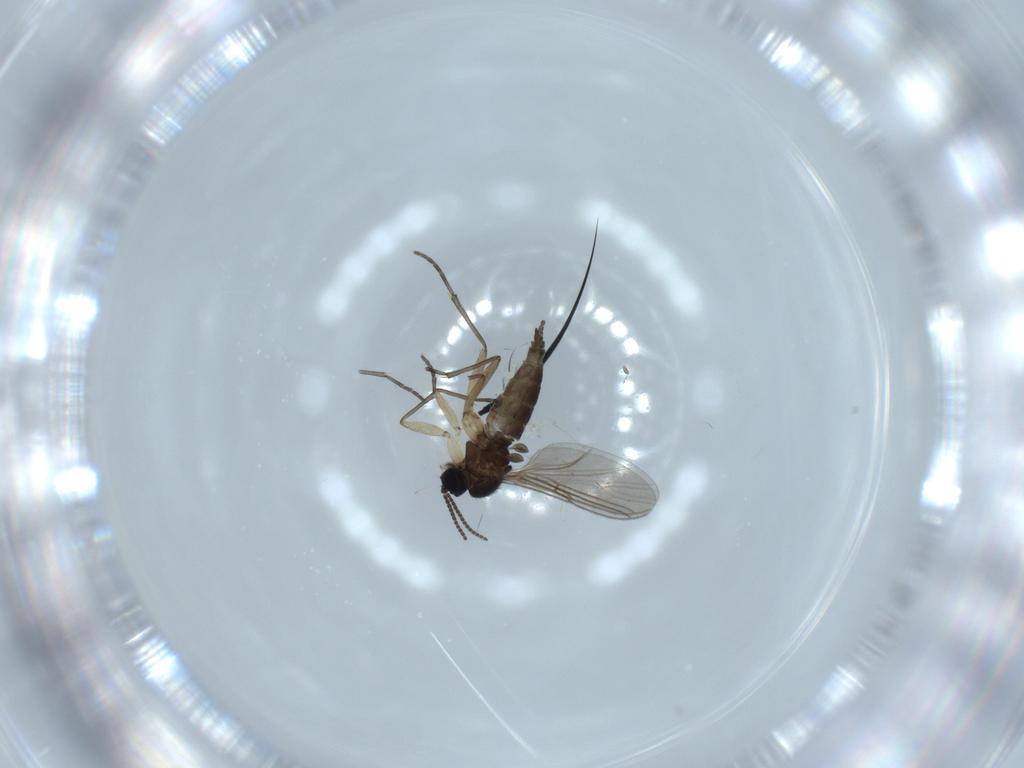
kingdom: Animalia
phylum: Arthropoda
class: Insecta
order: Diptera
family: Sciaridae
